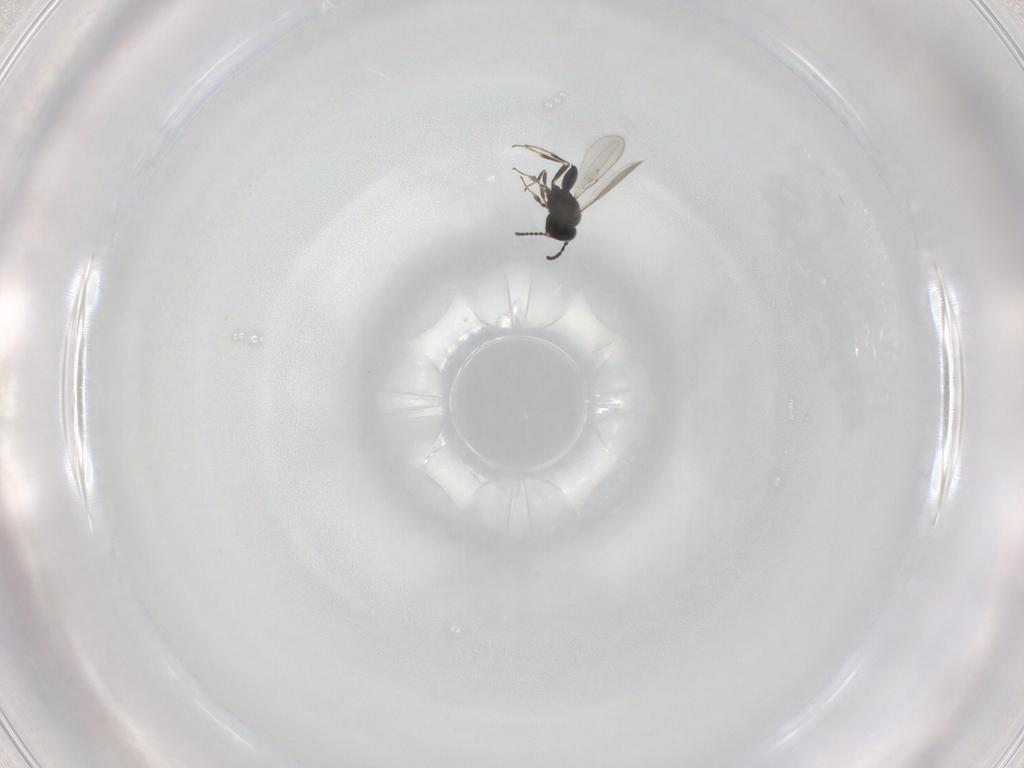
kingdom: Animalia
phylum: Arthropoda
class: Insecta
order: Hymenoptera
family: Scelionidae
